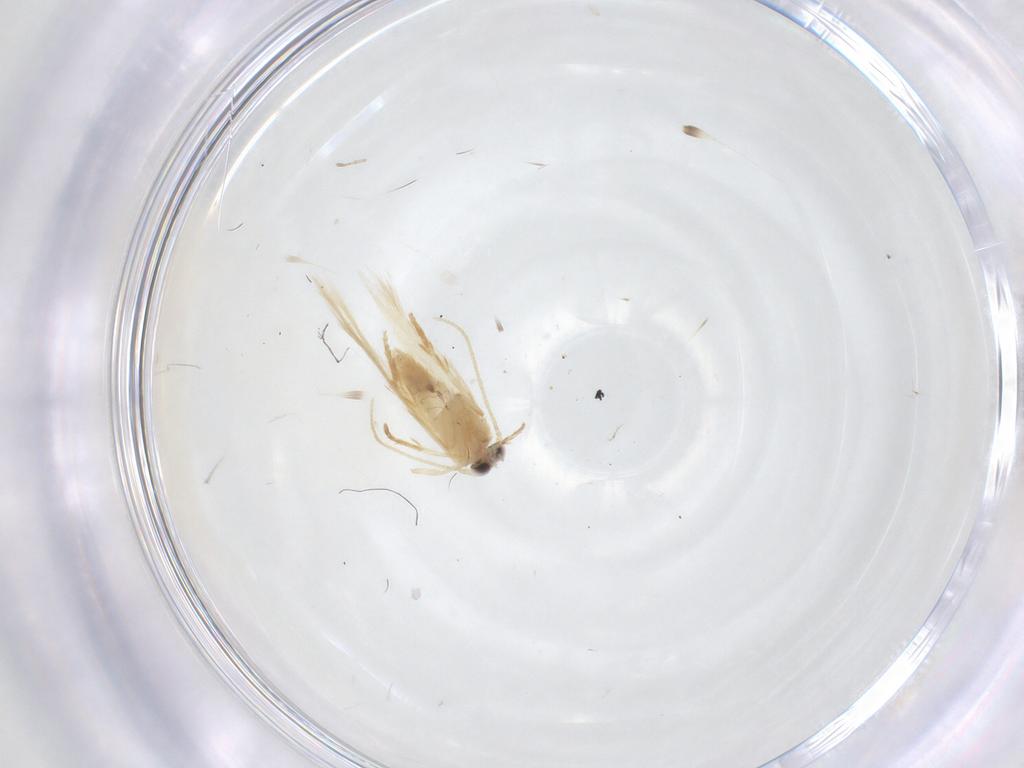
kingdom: Animalia
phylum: Arthropoda
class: Insecta
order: Lepidoptera
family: Nepticulidae
